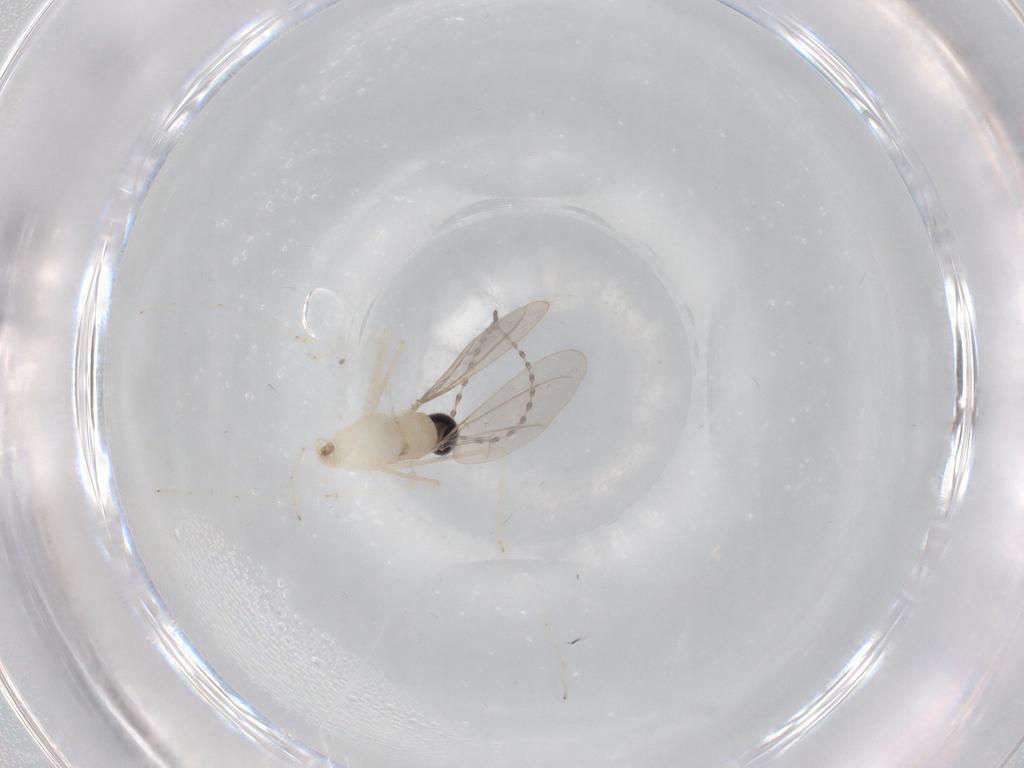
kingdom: Animalia
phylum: Arthropoda
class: Insecta
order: Diptera
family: Cecidomyiidae
